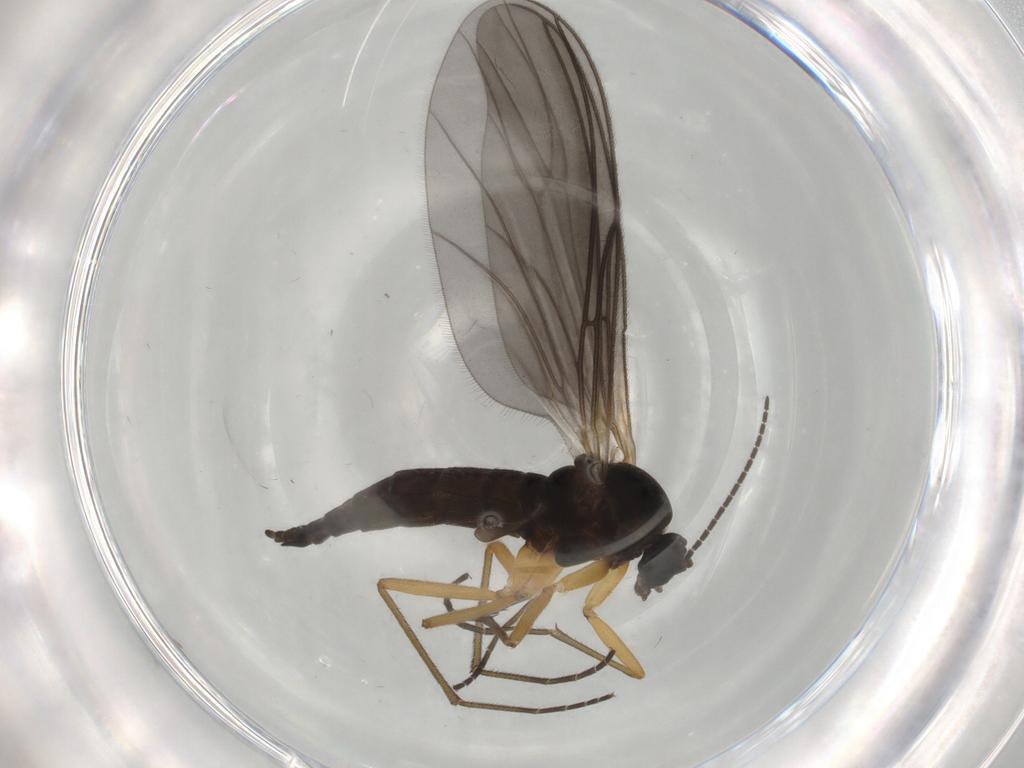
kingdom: Animalia
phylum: Arthropoda
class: Insecta
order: Diptera
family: Sciaridae
